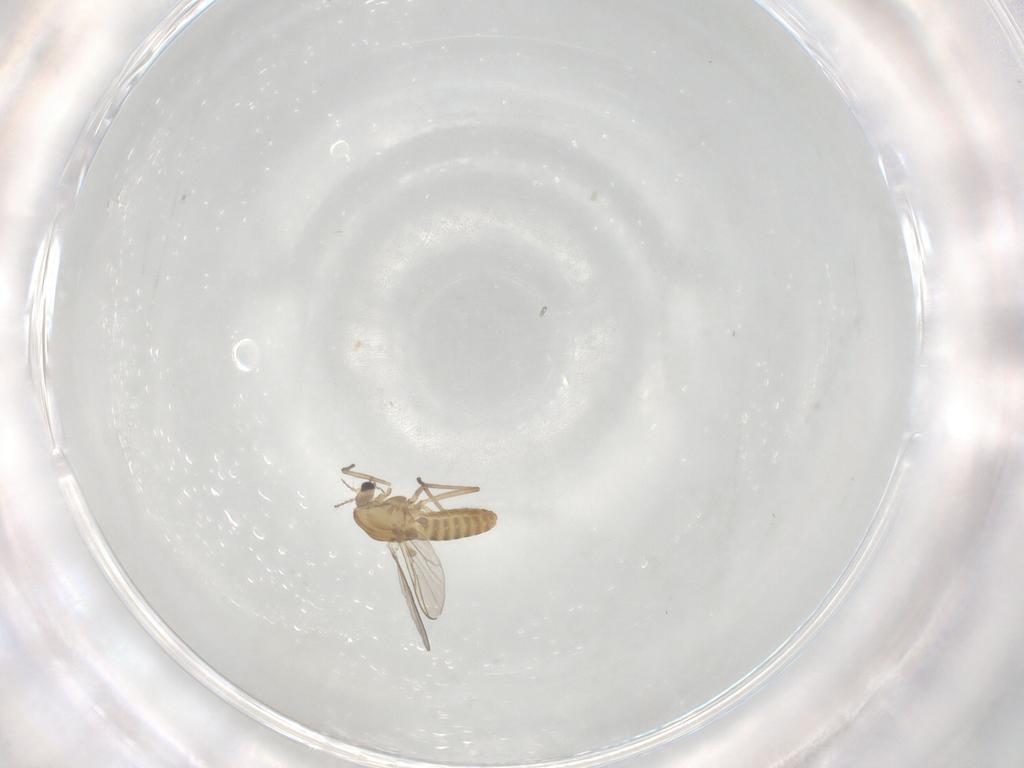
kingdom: Animalia
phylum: Arthropoda
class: Insecta
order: Diptera
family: Chironomidae
